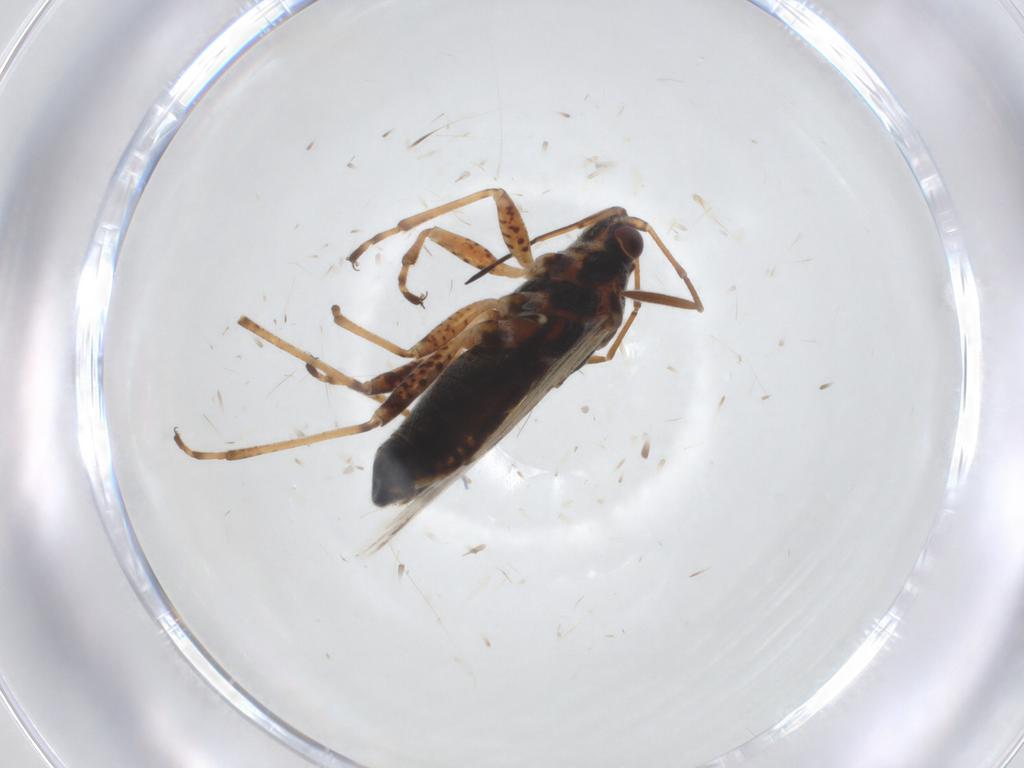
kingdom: Animalia
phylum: Arthropoda
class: Insecta
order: Hemiptera
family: Lygaeidae
